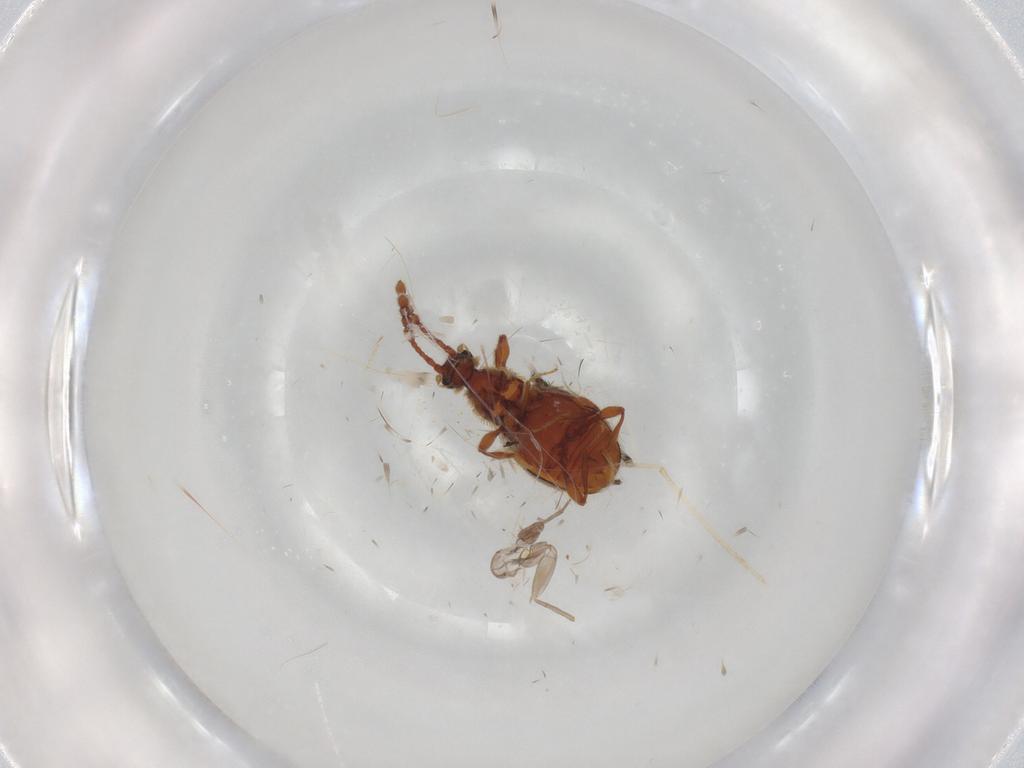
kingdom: Animalia
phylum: Arthropoda
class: Insecta
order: Coleoptera
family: Staphylinidae
